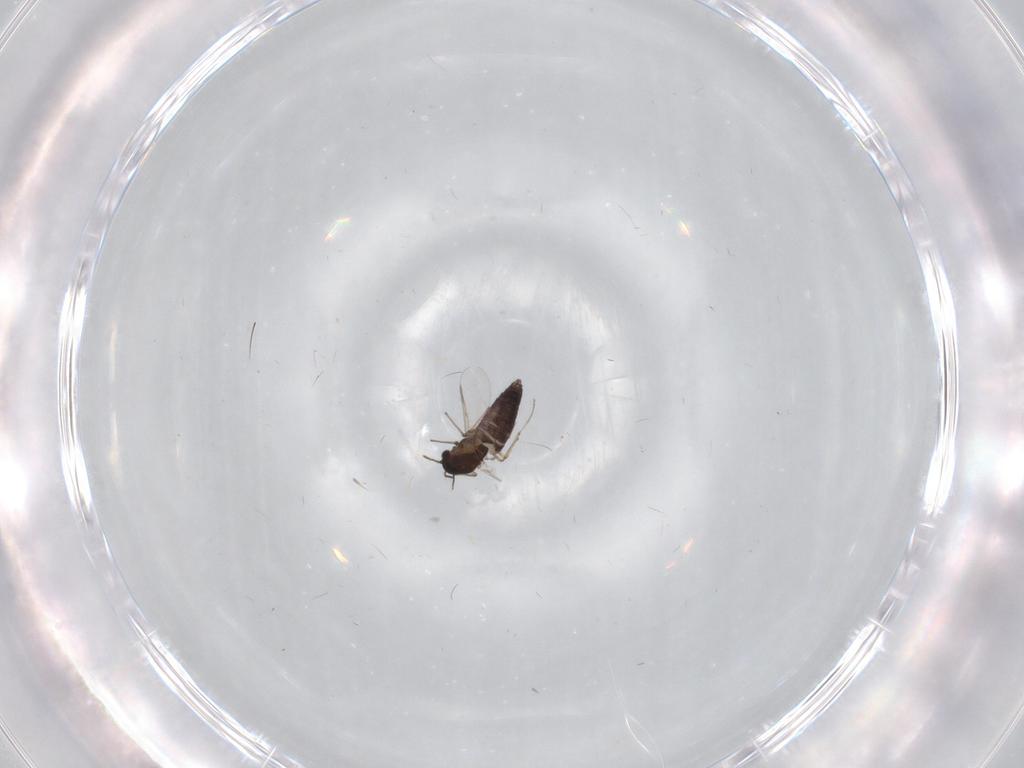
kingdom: Animalia
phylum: Arthropoda
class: Insecta
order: Diptera
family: Chironomidae
